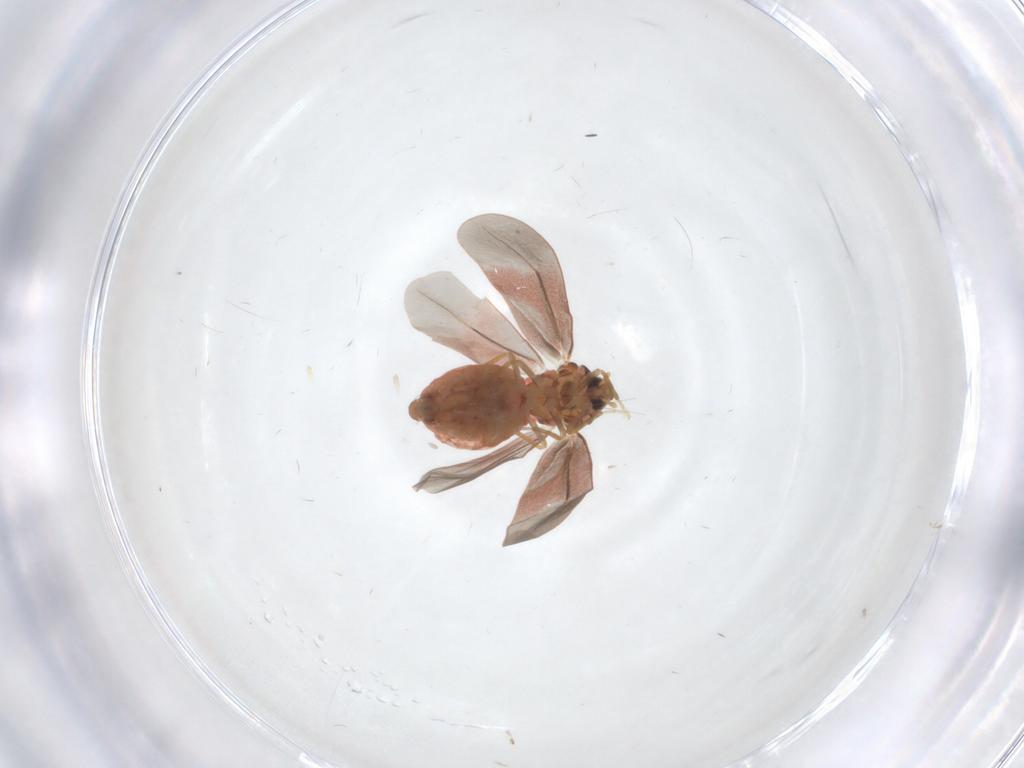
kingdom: Animalia
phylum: Arthropoda
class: Insecta
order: Hemiptera
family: Aleyrodidae
